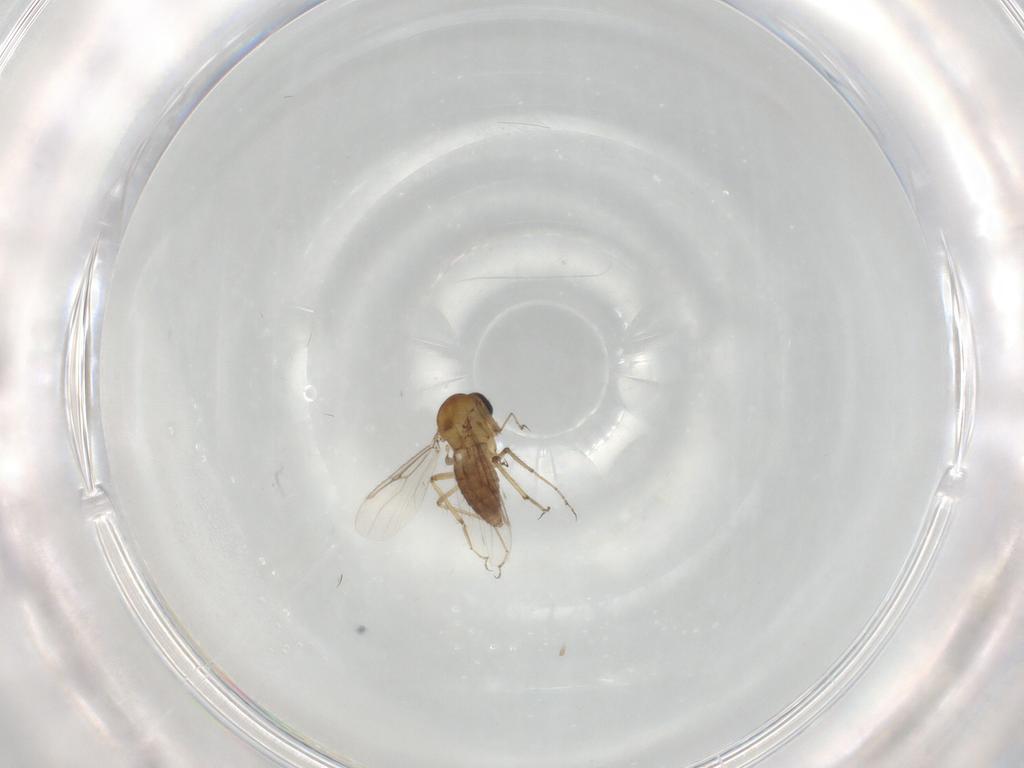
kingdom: Animalia
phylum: Arthropoda
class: Insecta
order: Diptera
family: Ceratopogonidae
